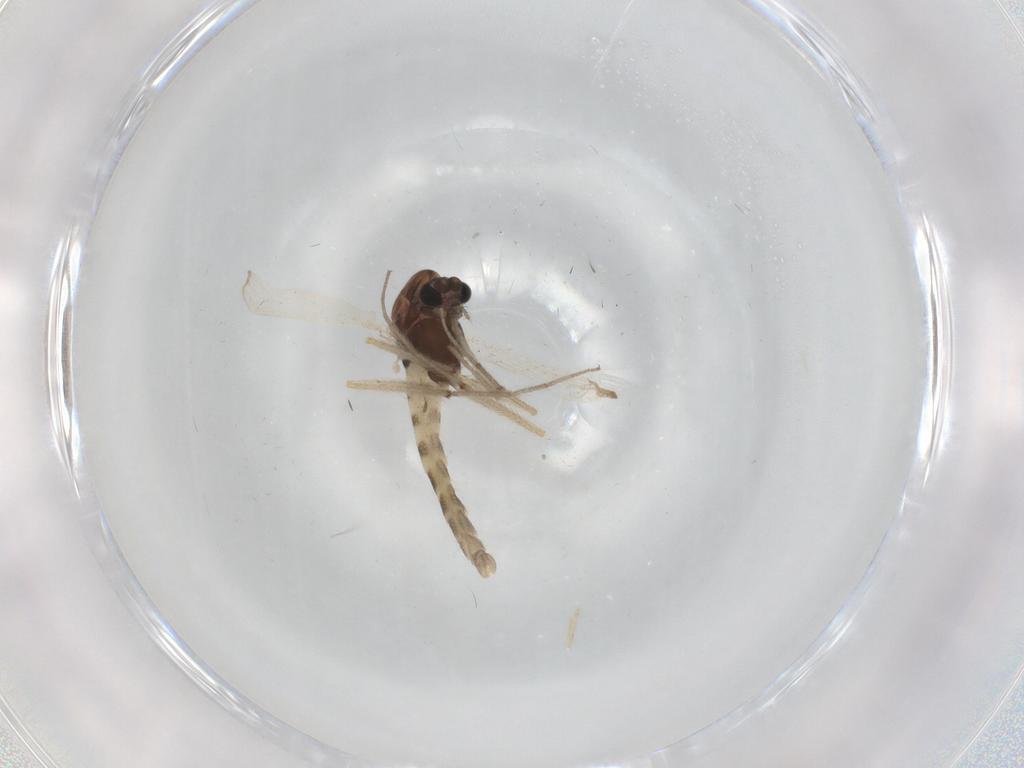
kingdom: Animalia
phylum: Arthropoda
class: Insecta
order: Diptera
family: Chironomidae
